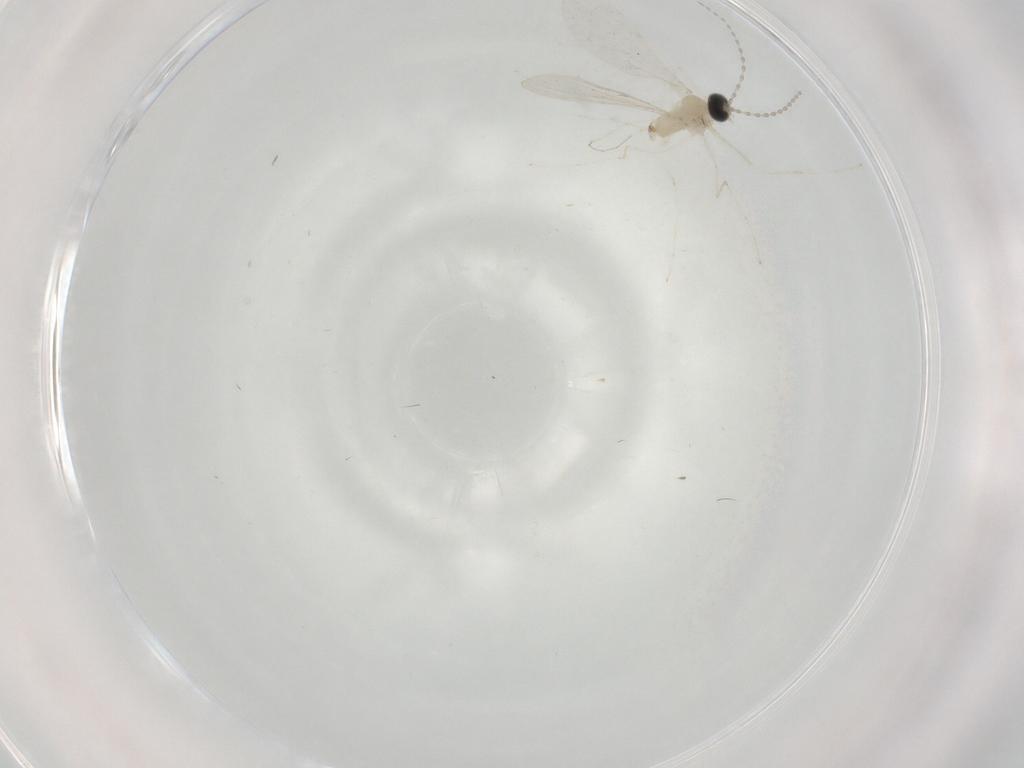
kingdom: Animalia
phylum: Arthropoda
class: Insecta
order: Diptera
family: Cecidomyiidae
